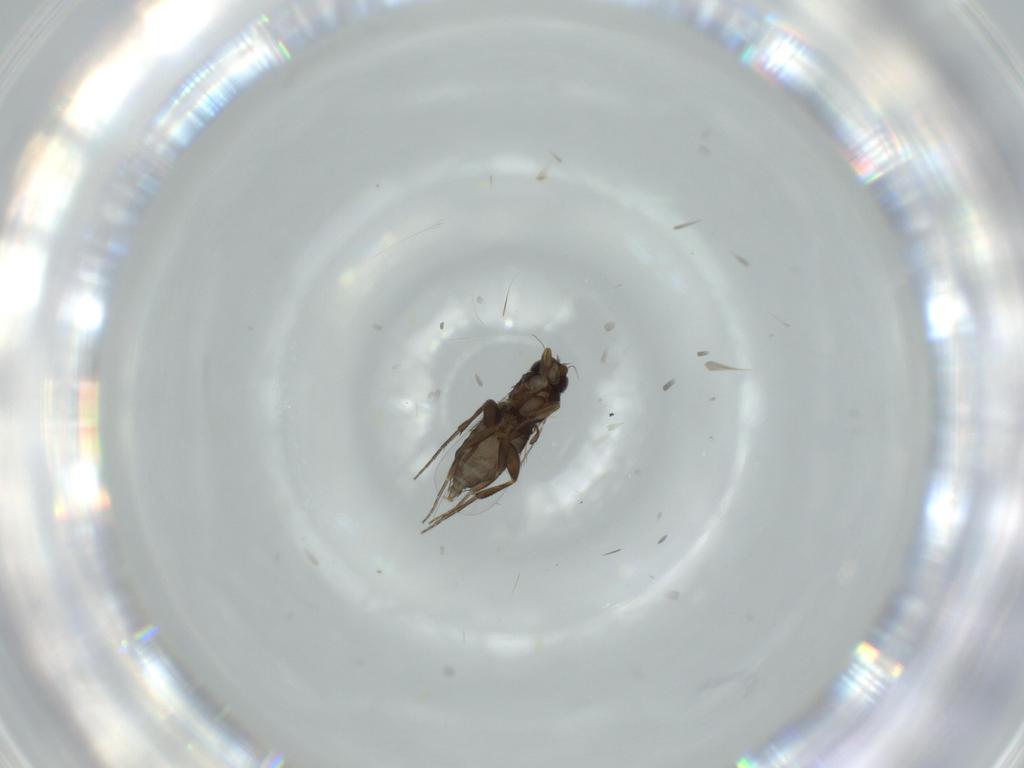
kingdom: Animalia
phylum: Arthropoda
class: Insecta
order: Diptera
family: Phoridae
